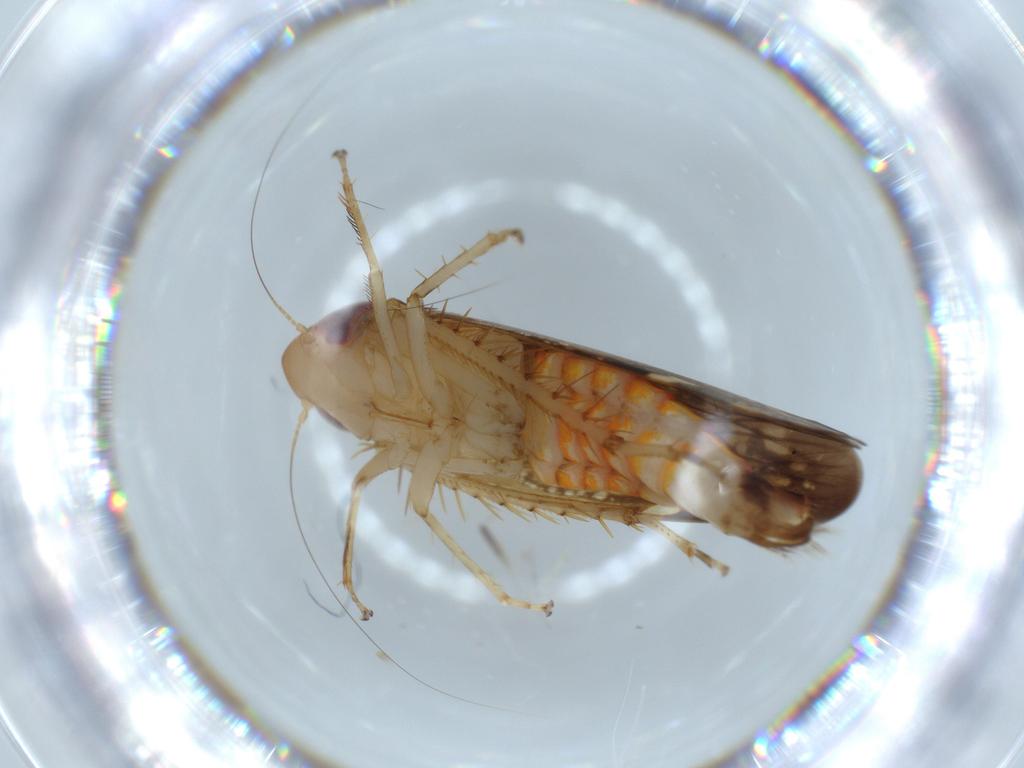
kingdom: Animalia
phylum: Arthropoda
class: Insecta
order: Hemiptera
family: Cicadellidae
